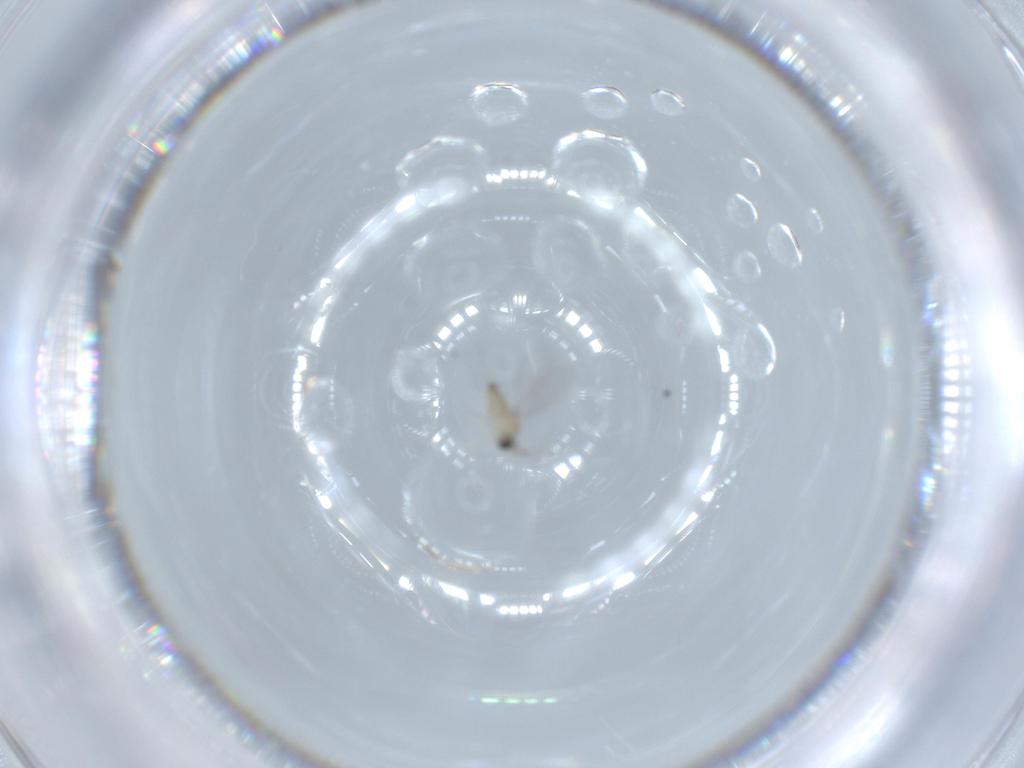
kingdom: Animalia
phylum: Arthropoda
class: Insecta
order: Diptera
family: Cecidomyiidae
